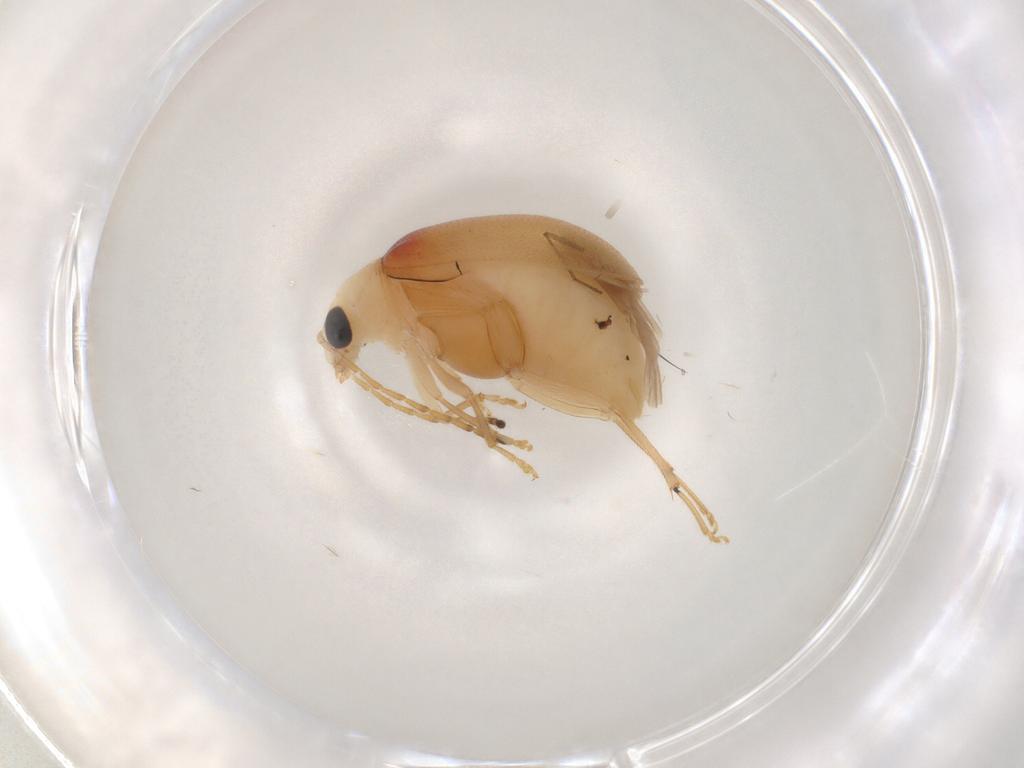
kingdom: Animalia
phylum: Arthropoda
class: Insecta
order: Coleoptera
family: Chrysomelidae
